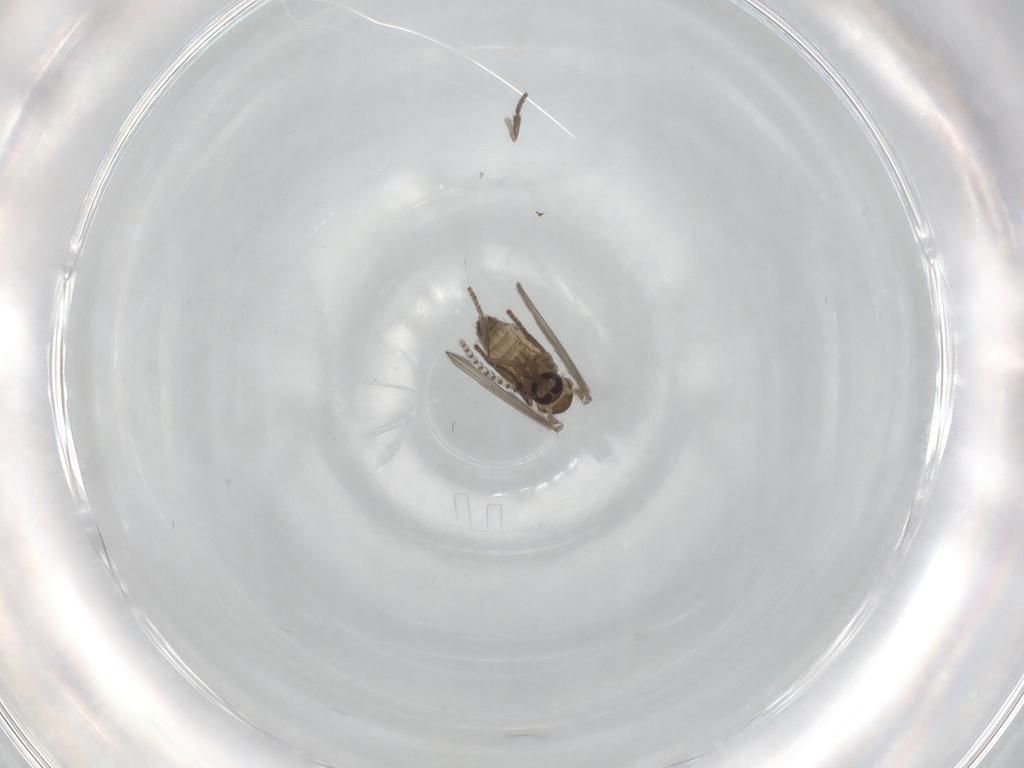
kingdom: Animalia
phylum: Arthropoda
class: Insecta
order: Diptera
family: Psychodidae
